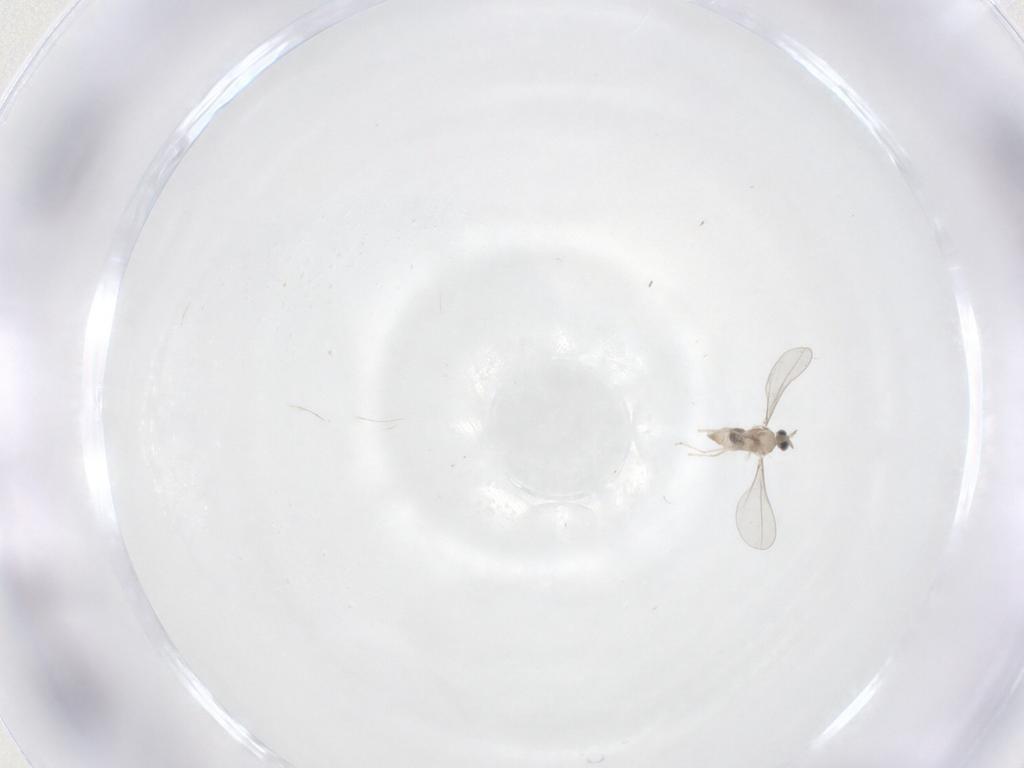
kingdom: Animalia
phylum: Arthropoda
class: Insecta
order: Diptera
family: Cecidomyiidae
